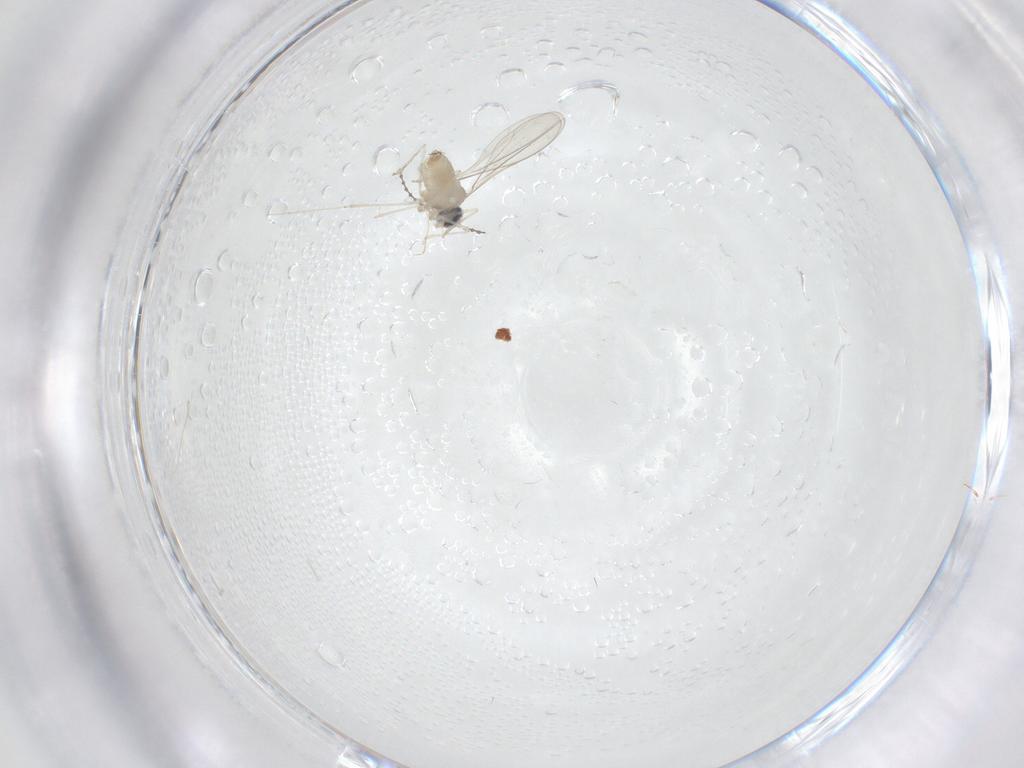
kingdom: Animalia
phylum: Arthropoda
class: Insecta
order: Diptera
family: Cecidomyiidae
